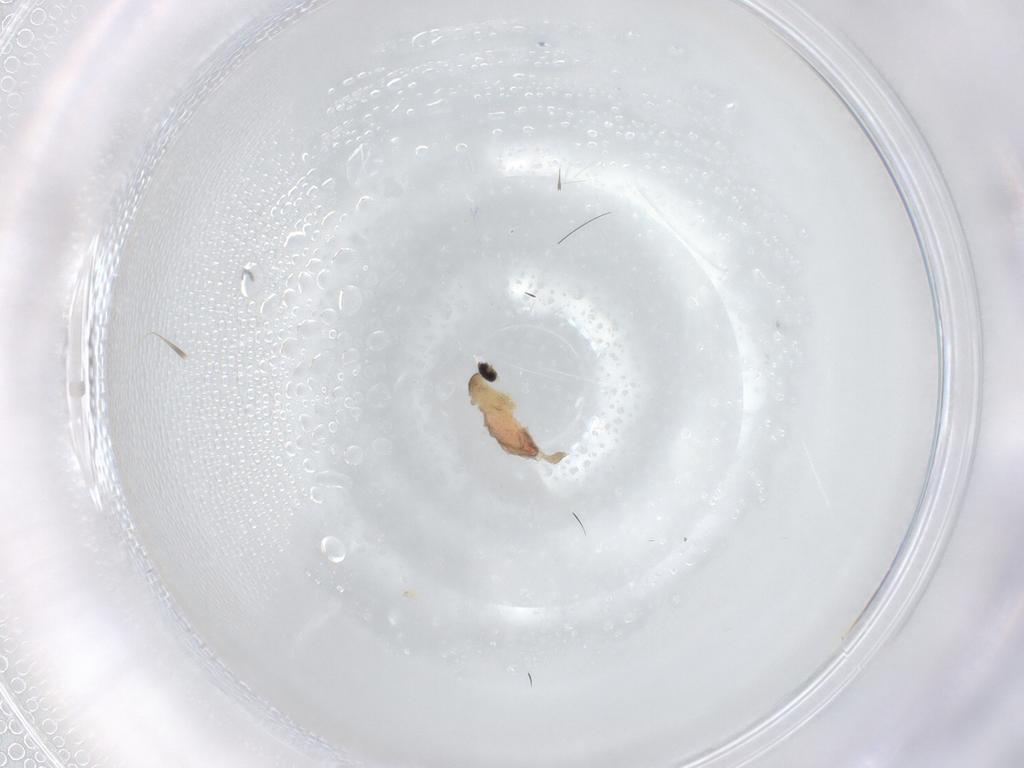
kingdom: Animalia
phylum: Arthropoda
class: Insecta
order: Diptera
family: Cecidomyiidae
